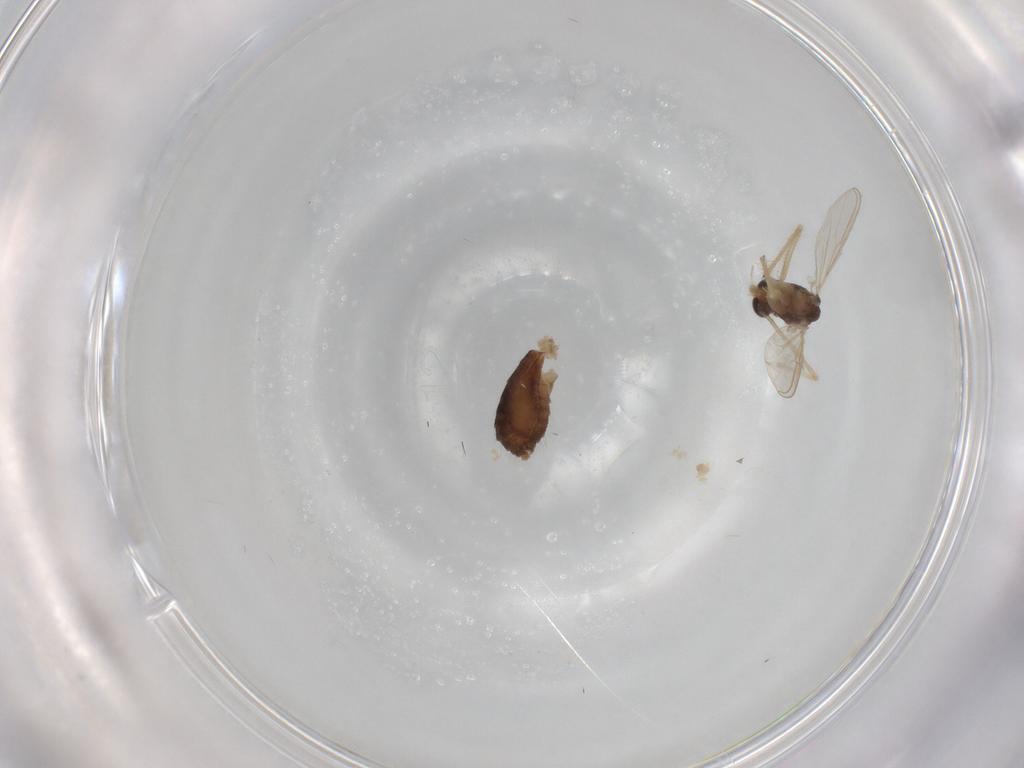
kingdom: Animalia
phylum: Arthropoda
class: Insecta
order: Diptera
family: Chironomidae
